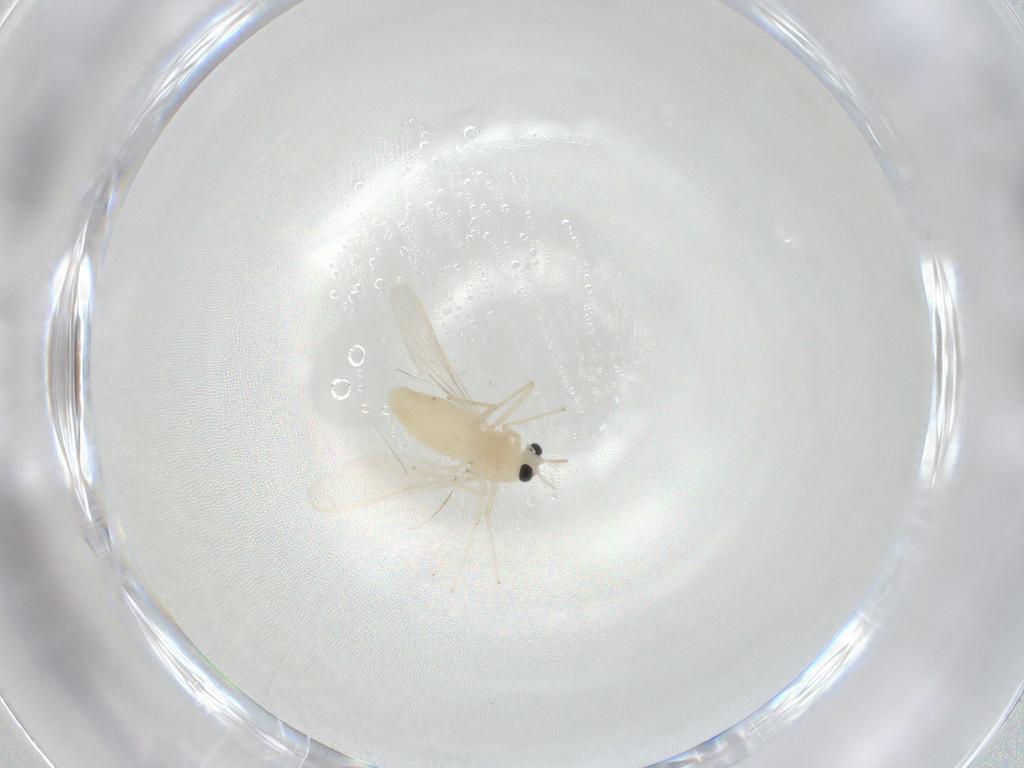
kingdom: Animalia
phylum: Arthropoda
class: Insecta
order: Diptera
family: Chironomidae
